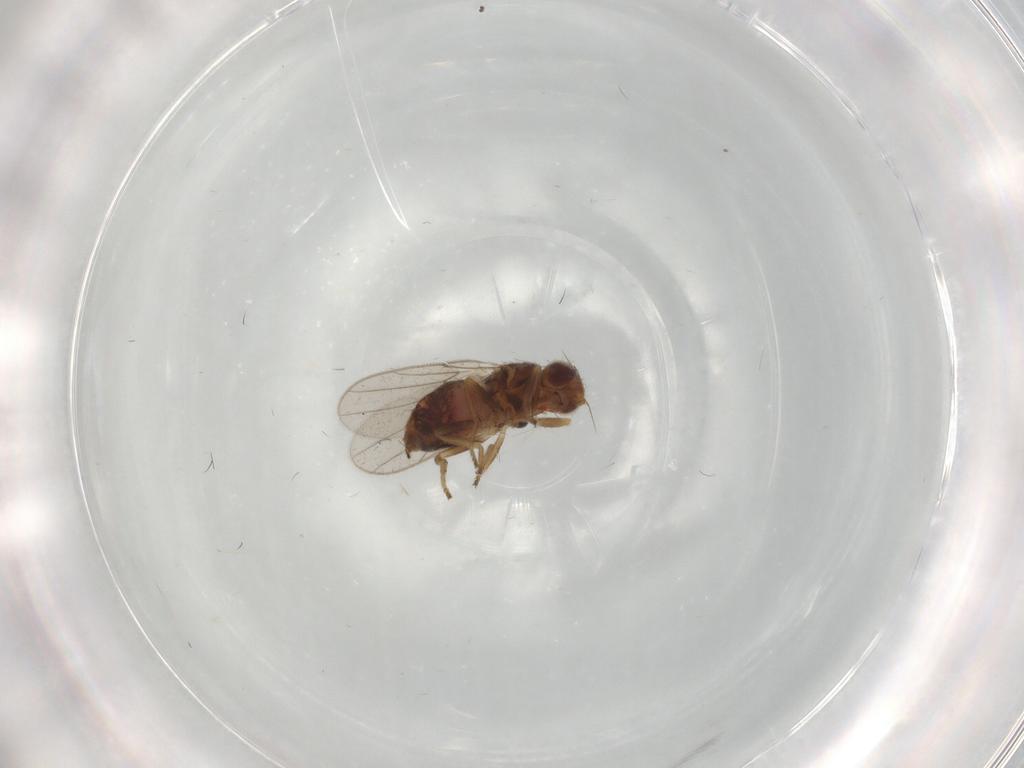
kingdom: Animalia
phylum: Arthropoda
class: Insecta
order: Diptera
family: Chloropidae
